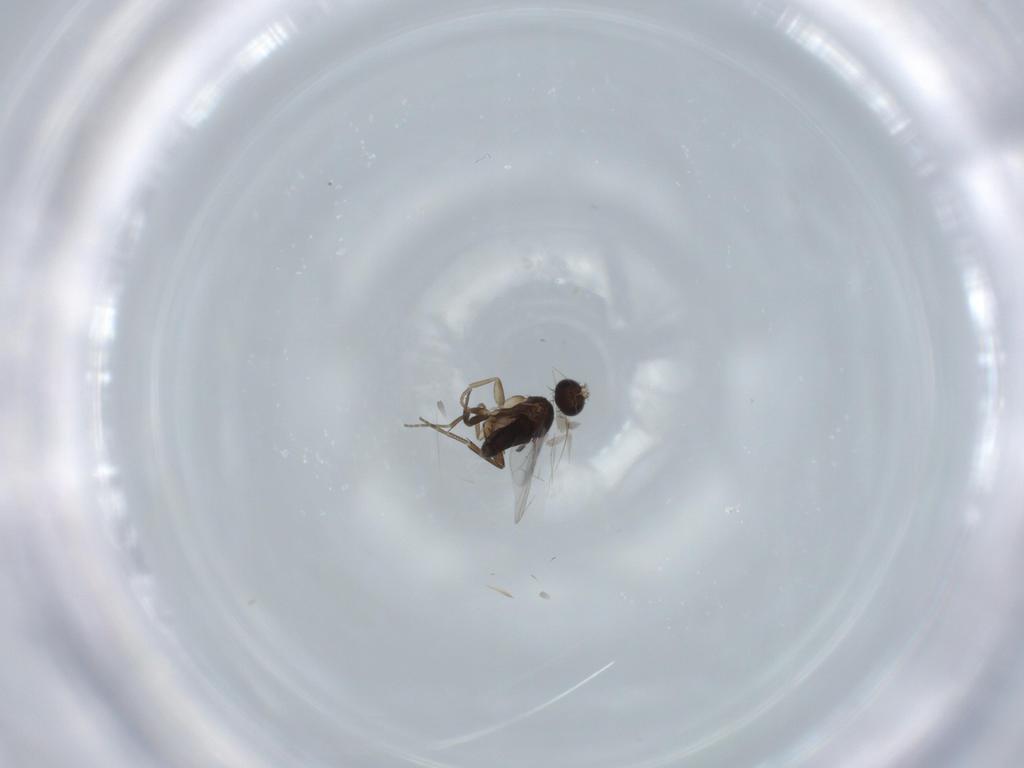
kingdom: Animalia
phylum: Arthropoda
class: Insecta
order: Diptera
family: Phoridae
